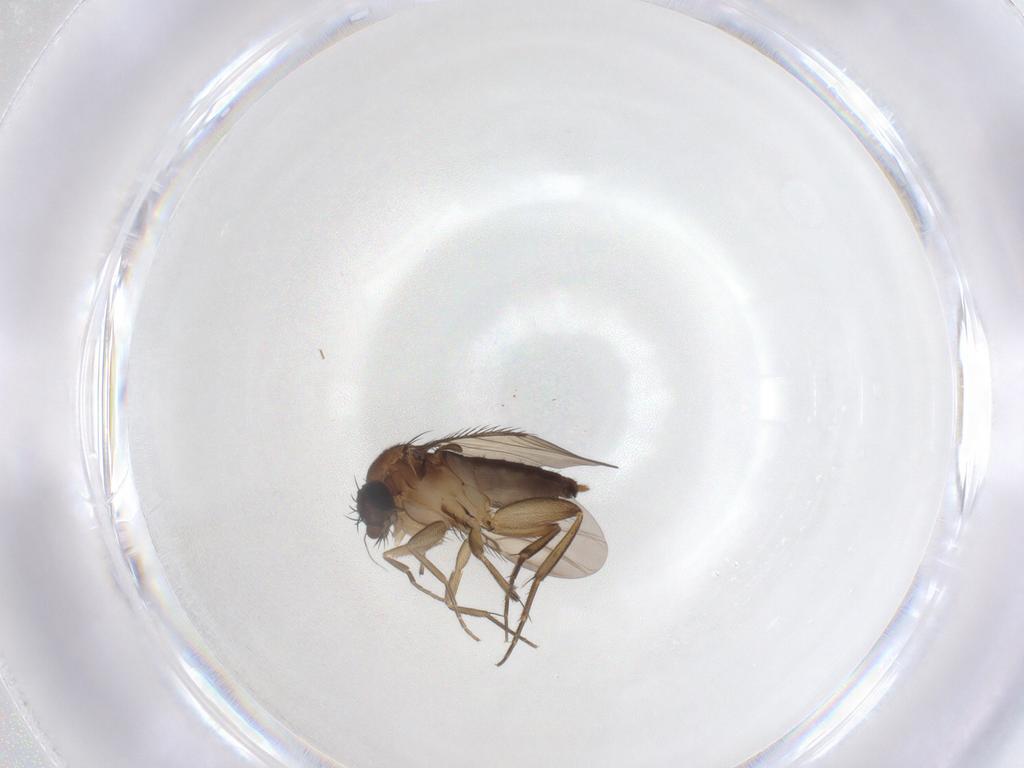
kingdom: Animalia
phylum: Arthropoda
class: Insecta
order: Diptera
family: Phoridae
